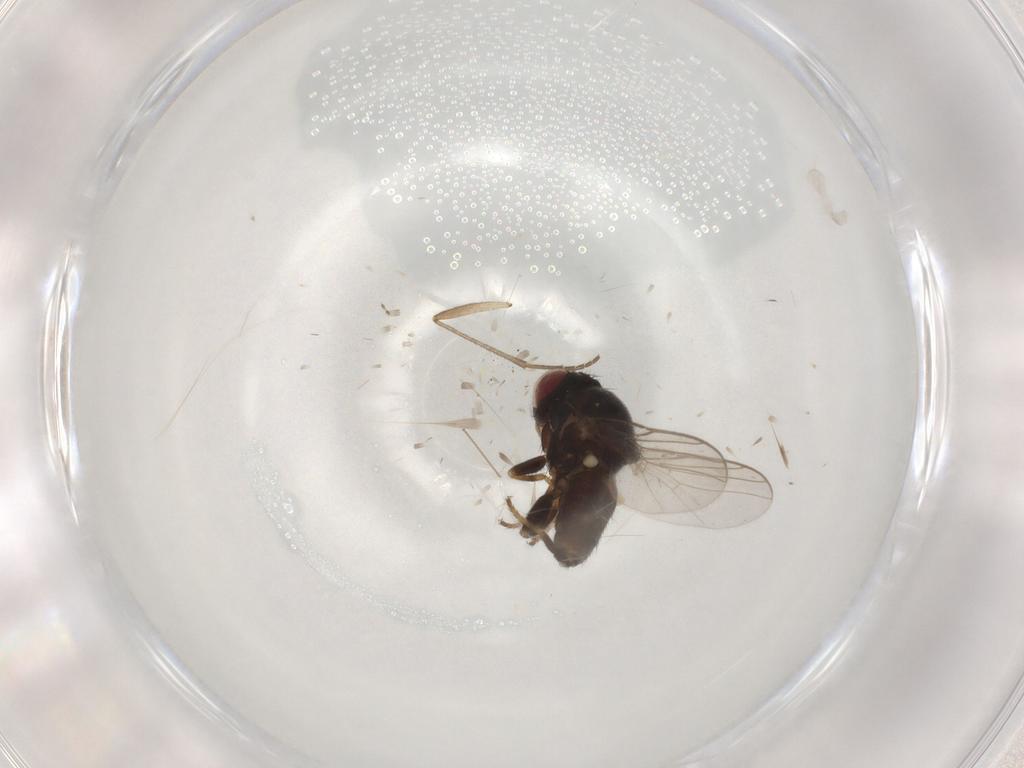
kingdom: Animalia
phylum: Arthropoda
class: Insecta
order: Diptera
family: Chloropidae
